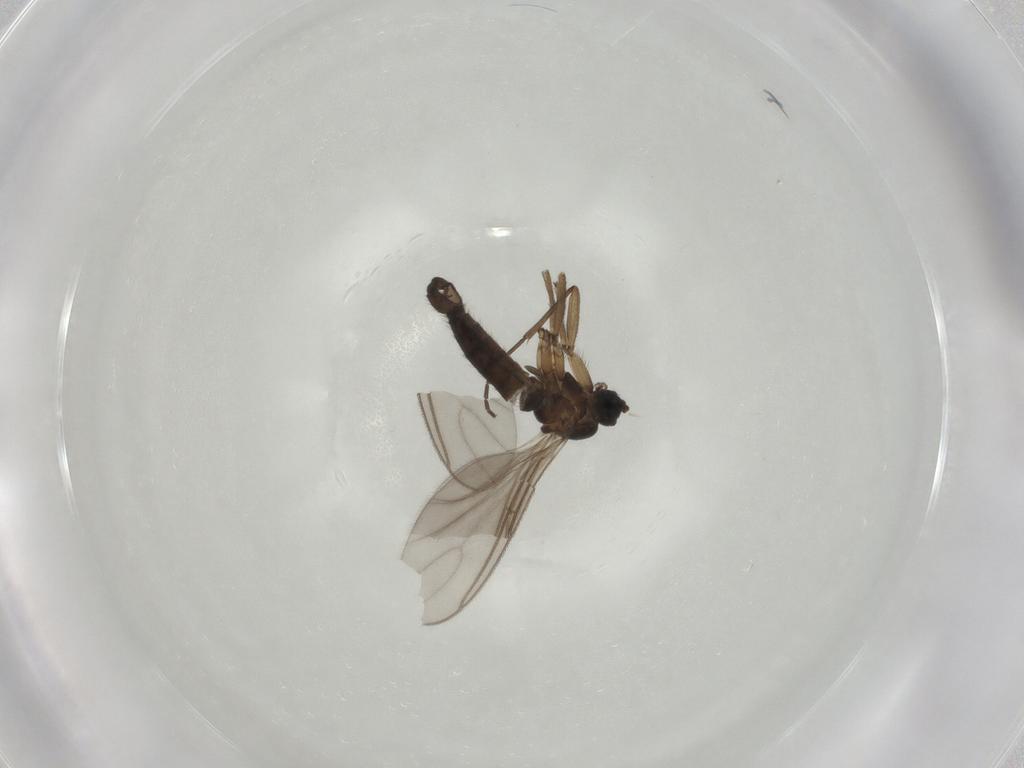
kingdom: Animalia
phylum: Arthropoda
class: Insecta
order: Diptera
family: Sciaridae
